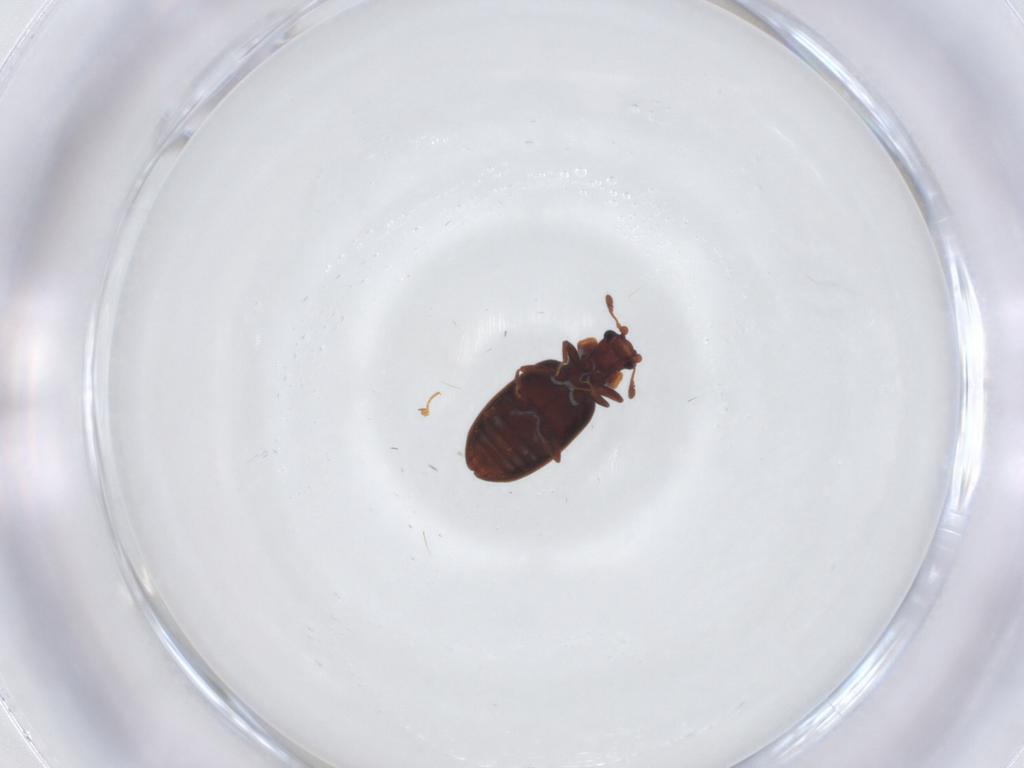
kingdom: Animalia
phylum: Arthropoda
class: Insecta
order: Coleoptera
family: Latridiidae
